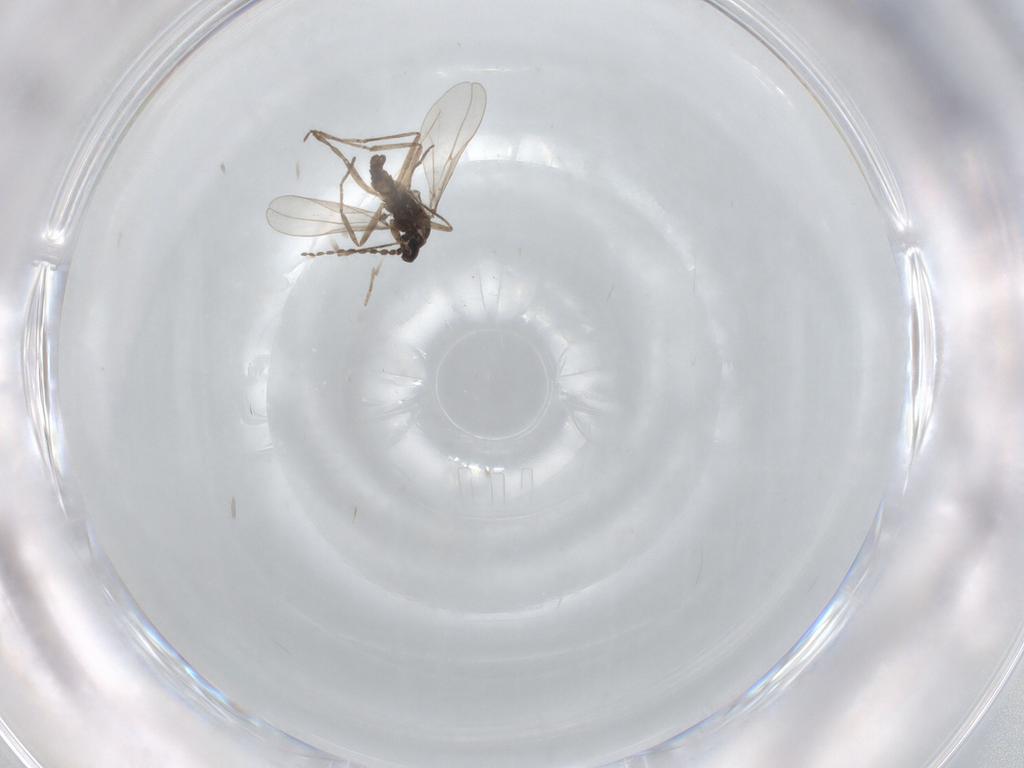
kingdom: Animalia
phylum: Arthropoda
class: Insecta
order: Diptera
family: Cecidomyiidae
